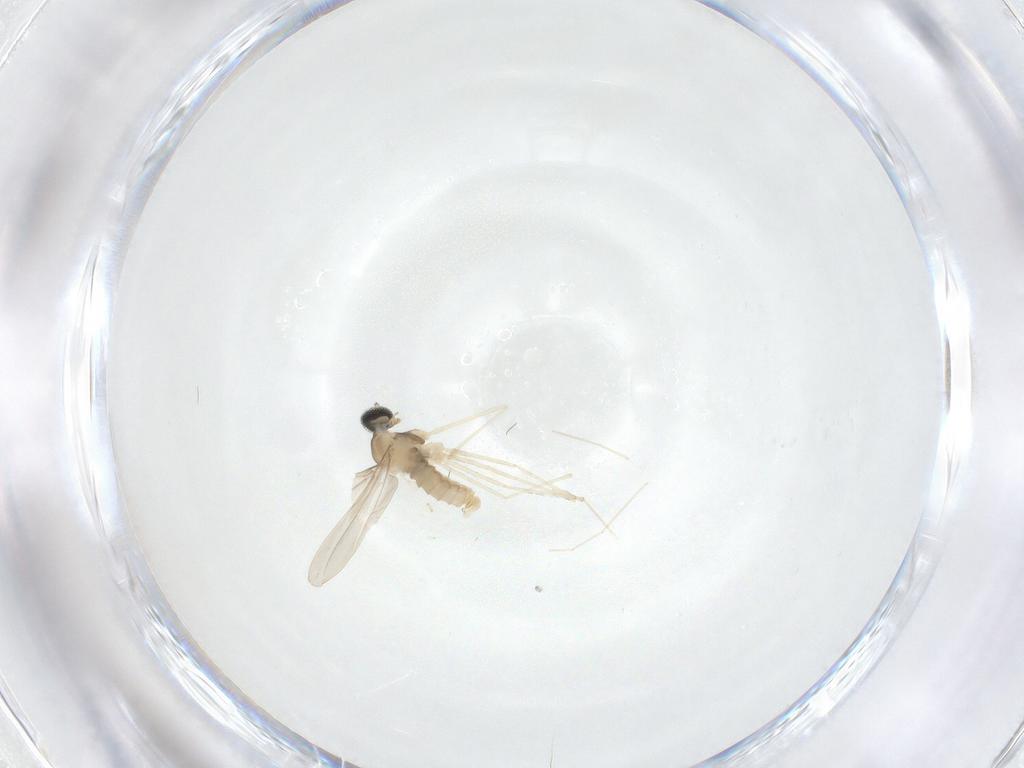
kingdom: Animalia
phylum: Arthropoda
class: Insecta
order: Diptera
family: Cecidomyiidae
